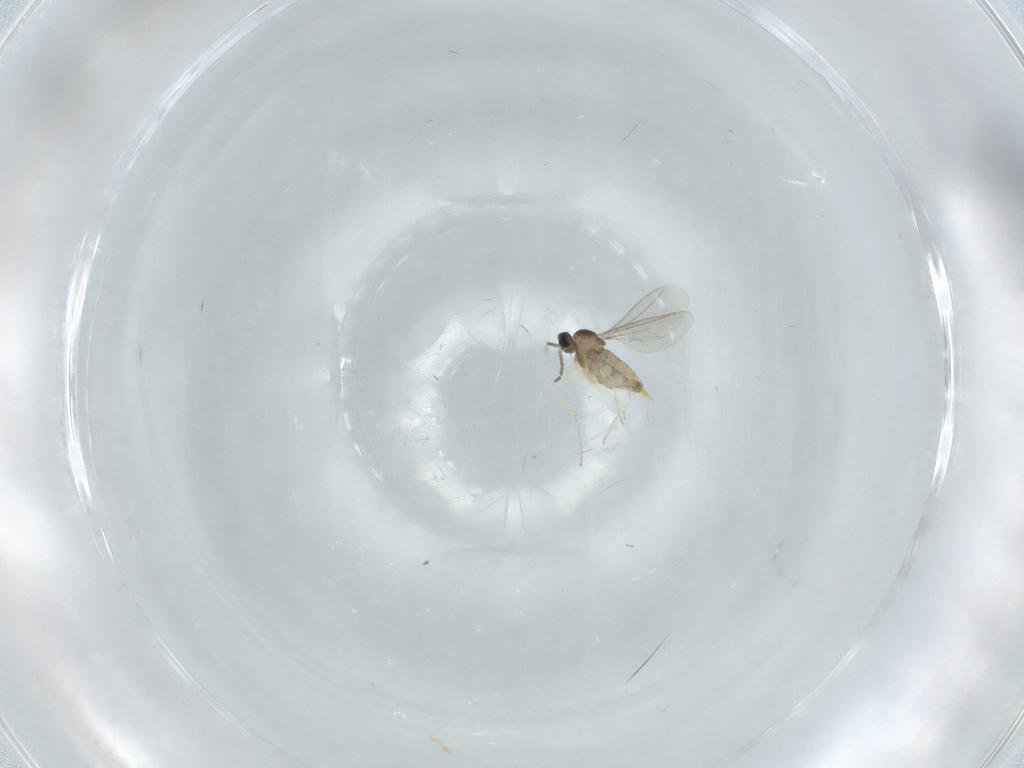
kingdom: Animalia
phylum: Arthropoda
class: Insecta
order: Diptera
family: Cecidomyiidae
